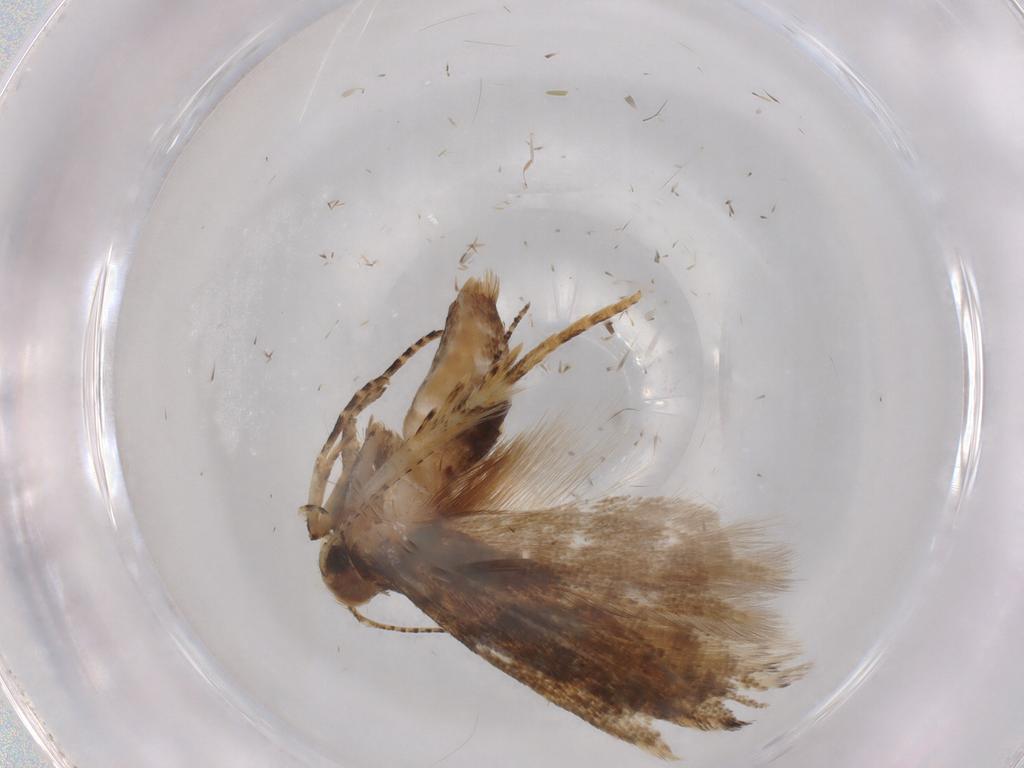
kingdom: Animalia
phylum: Arthropoda
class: Insecta
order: Lepidoptera
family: Gelechiidae
